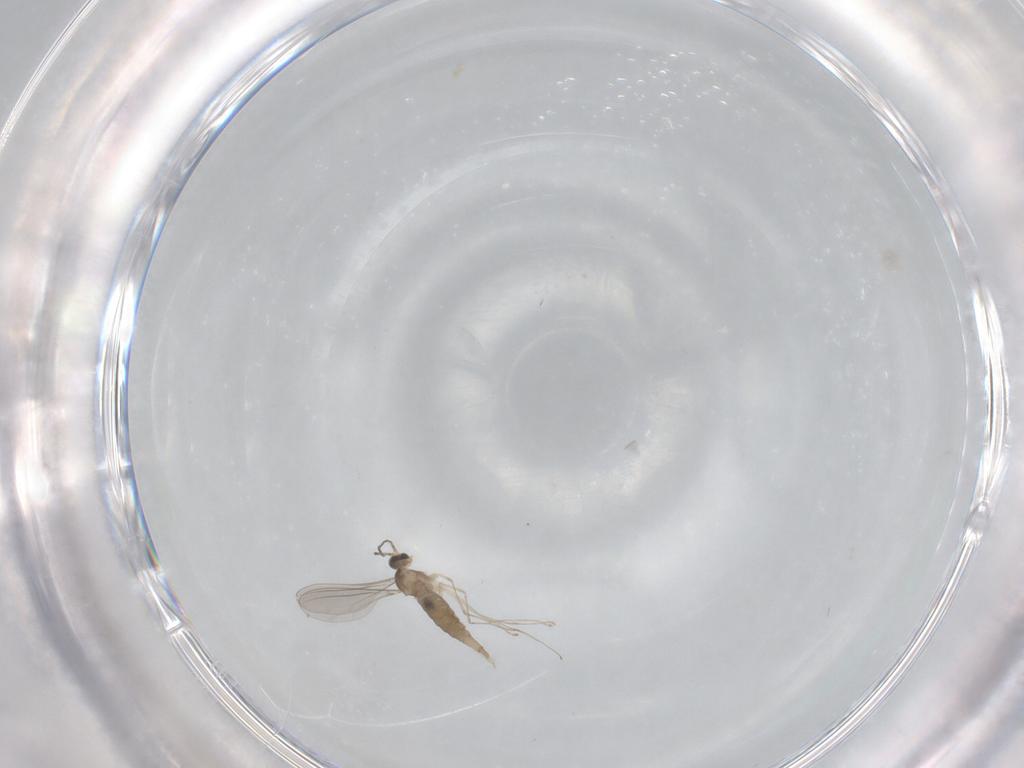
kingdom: Animalia
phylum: Arthropoda
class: Insecta
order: Diptera
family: Ceratopogonidae
